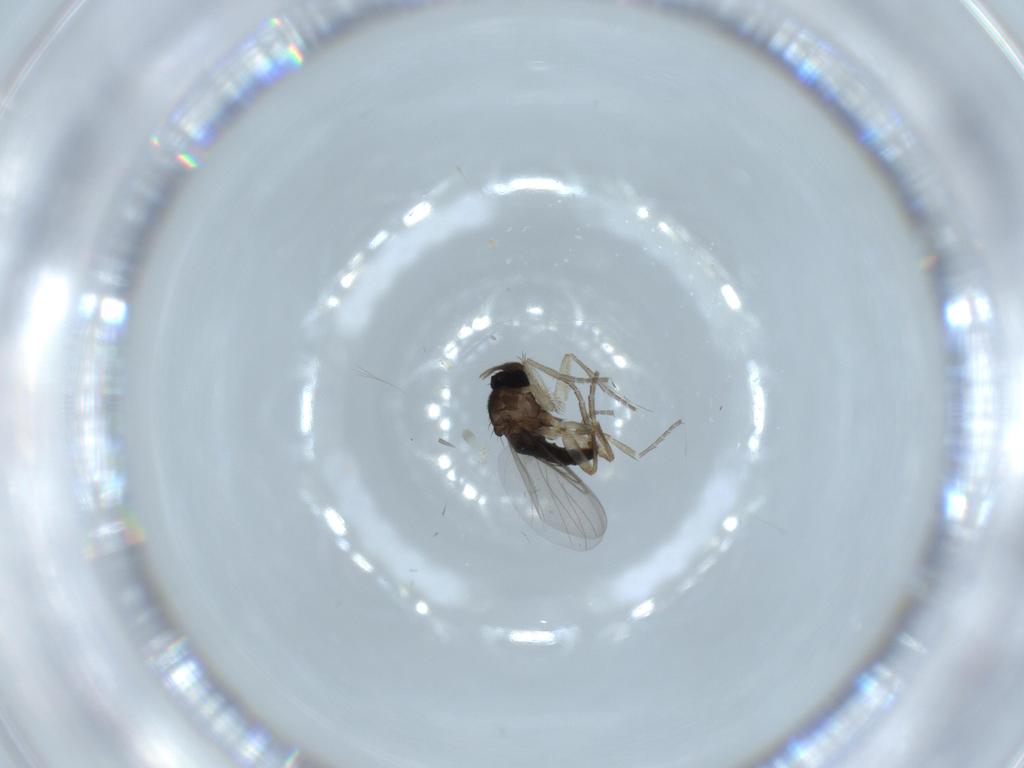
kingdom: Animalia
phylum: Arthropoda
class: Insecta
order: Diptera
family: Phoridae
